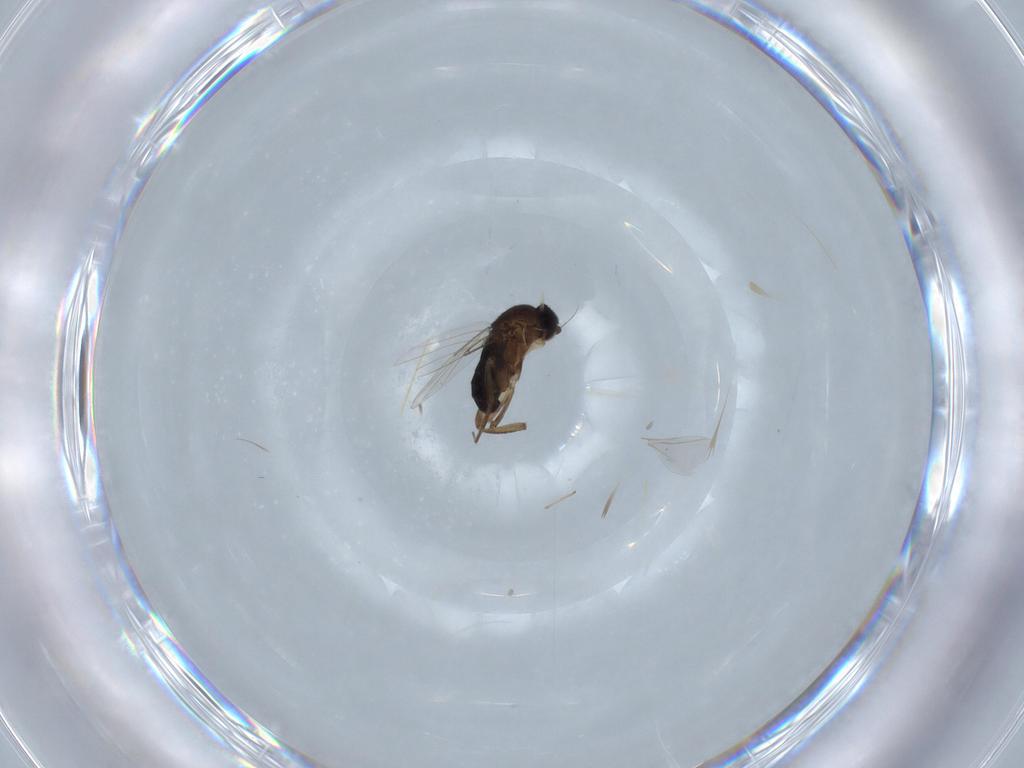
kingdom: Animalia
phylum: Arthropoda
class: Insecta
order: Diptera
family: Phoridae
